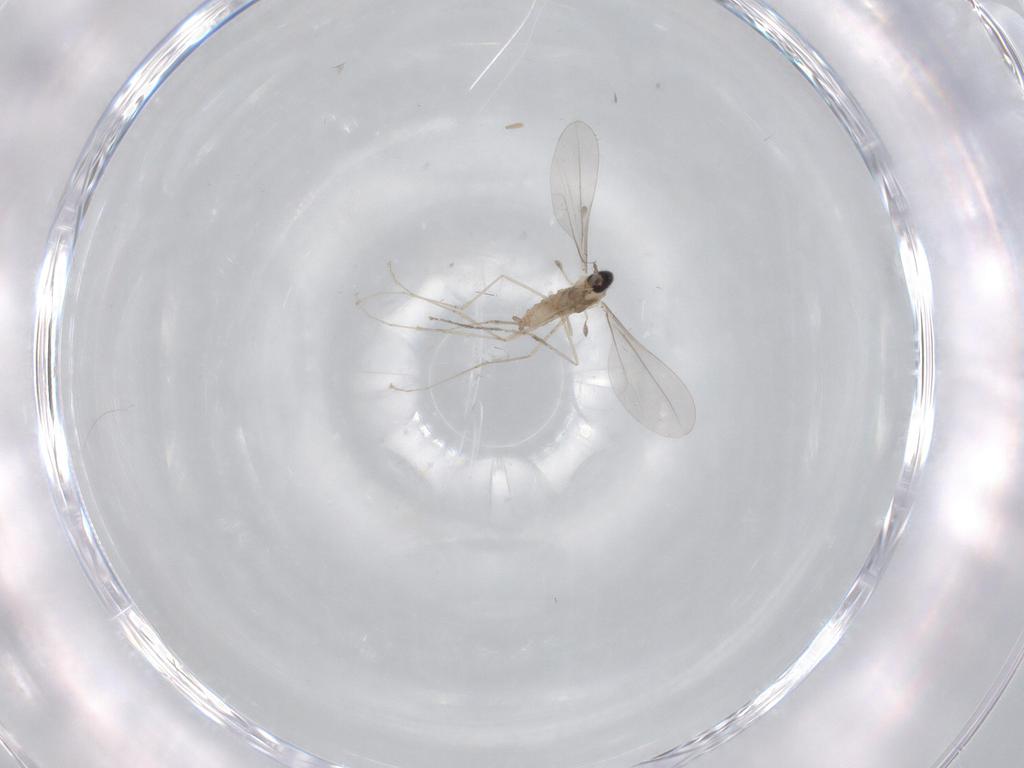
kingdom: Animalia
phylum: Arthropoda
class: Insecta
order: Diptera
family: Cecidomyiidae
